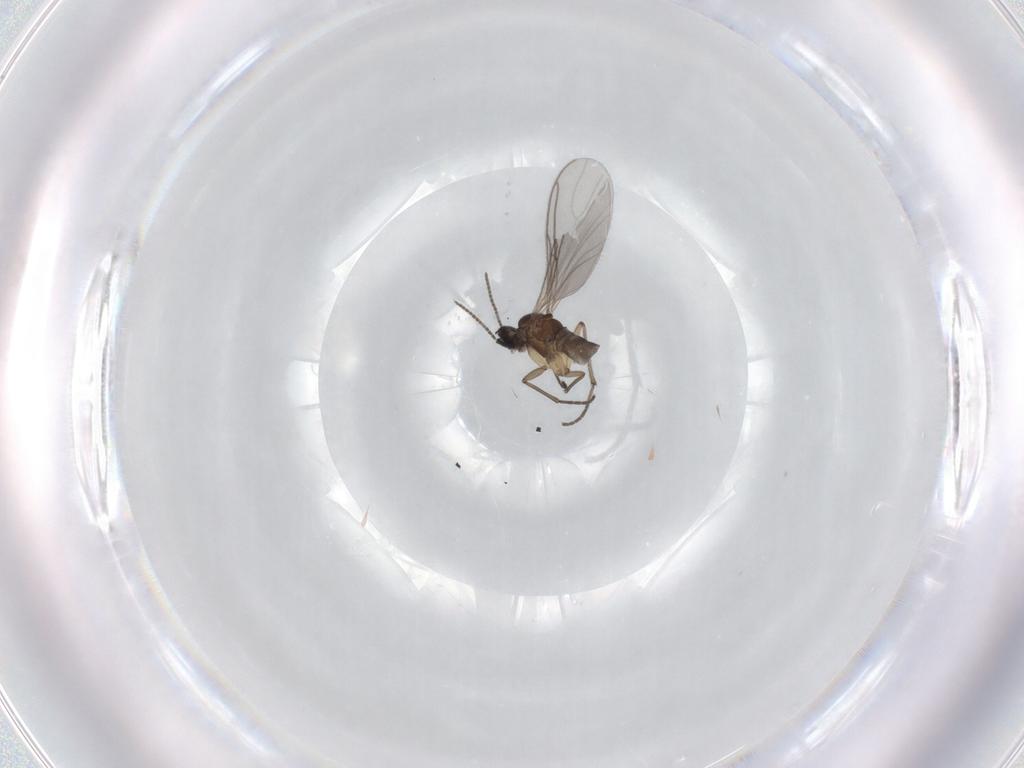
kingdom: Animalia
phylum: Arthropoda
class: Insecta
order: Diptera
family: Sciaridae
